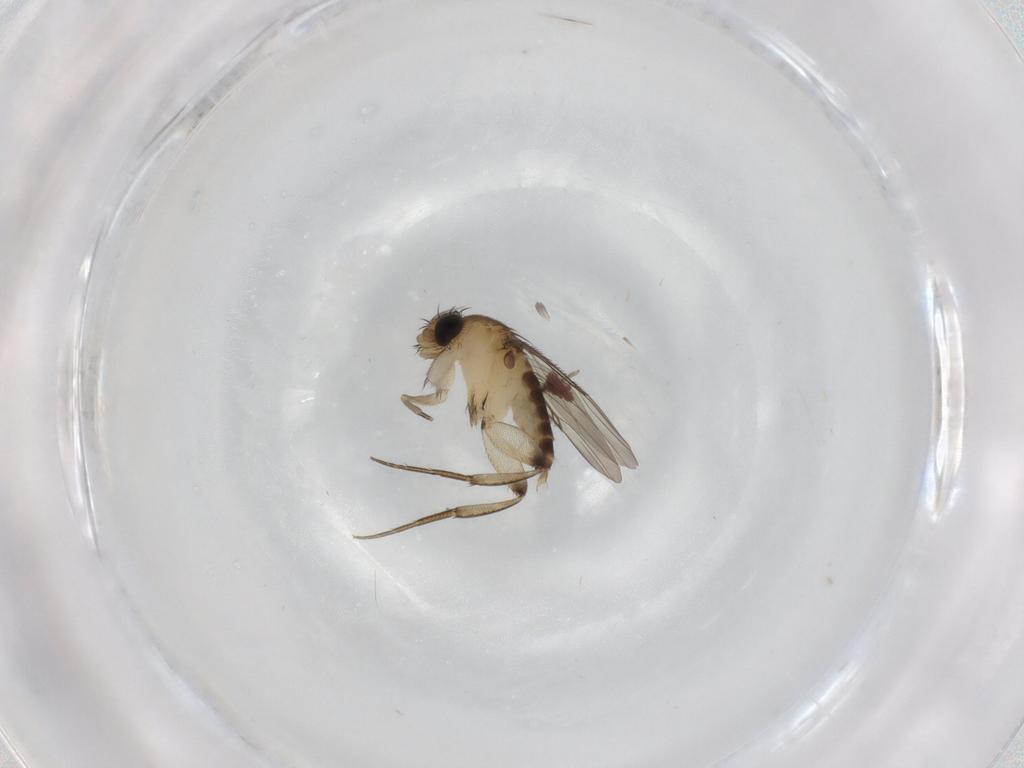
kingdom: Animalia
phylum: Arthropoda
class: Insecta
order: Diptera
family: Phoridae
